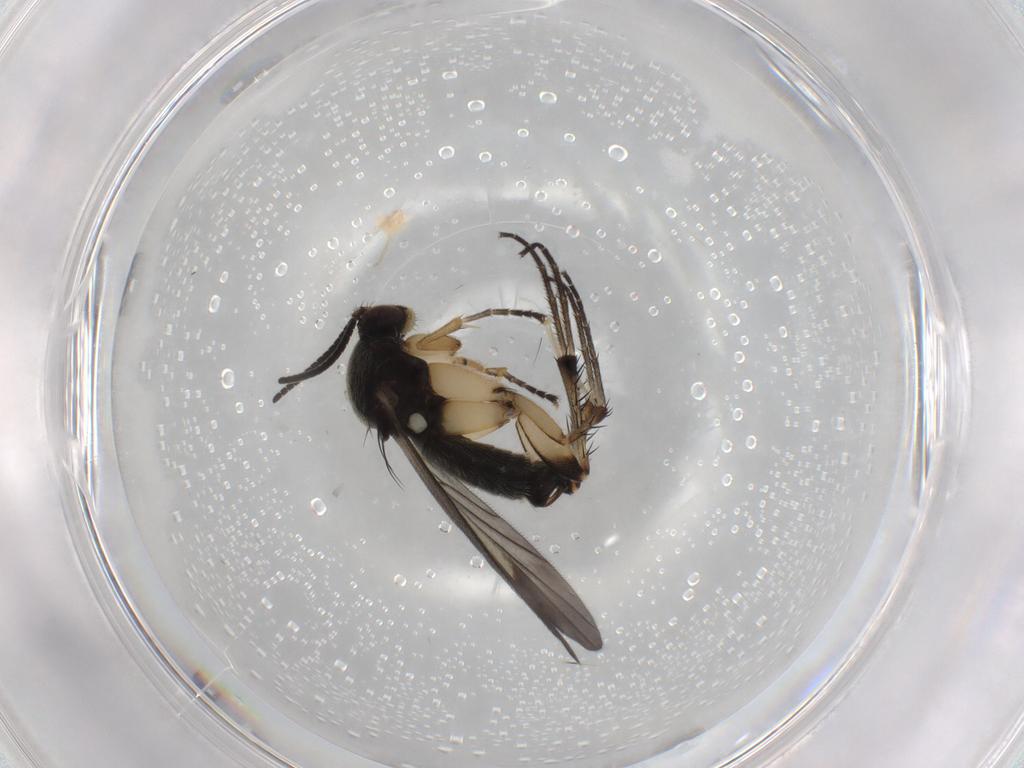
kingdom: Animalia
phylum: Arthropoda
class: Insecta
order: Diptera
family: Mycetophilidae
